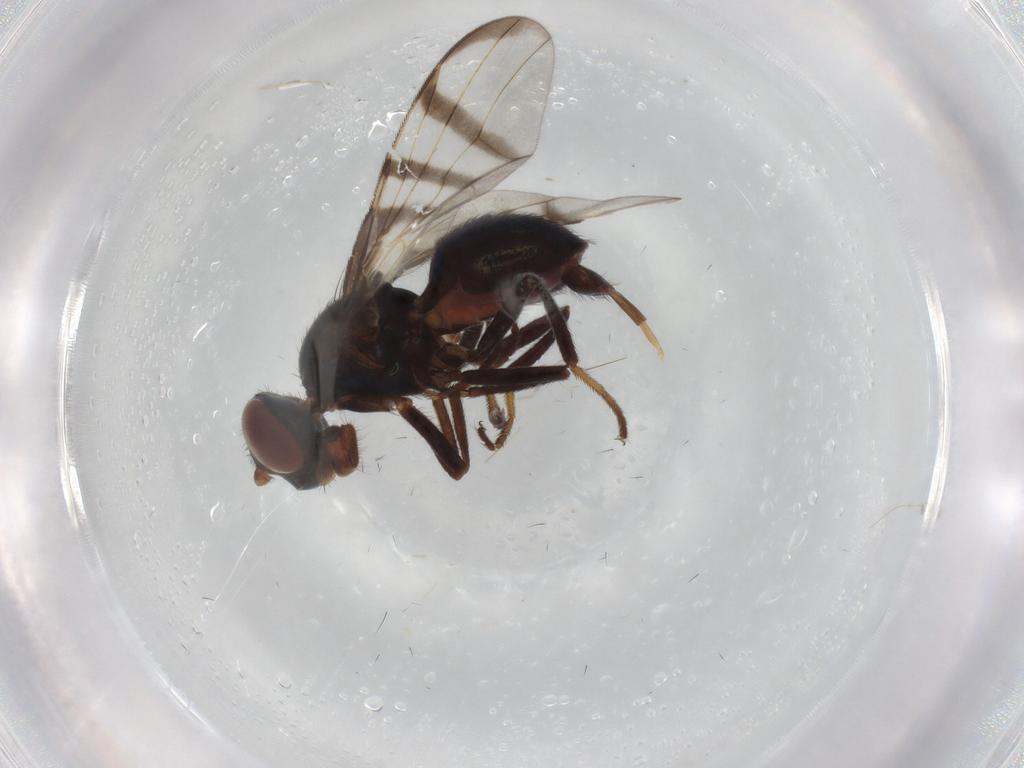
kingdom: Animalia
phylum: Arthropoda
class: Insecta
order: Diptera
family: Platystomatidae
